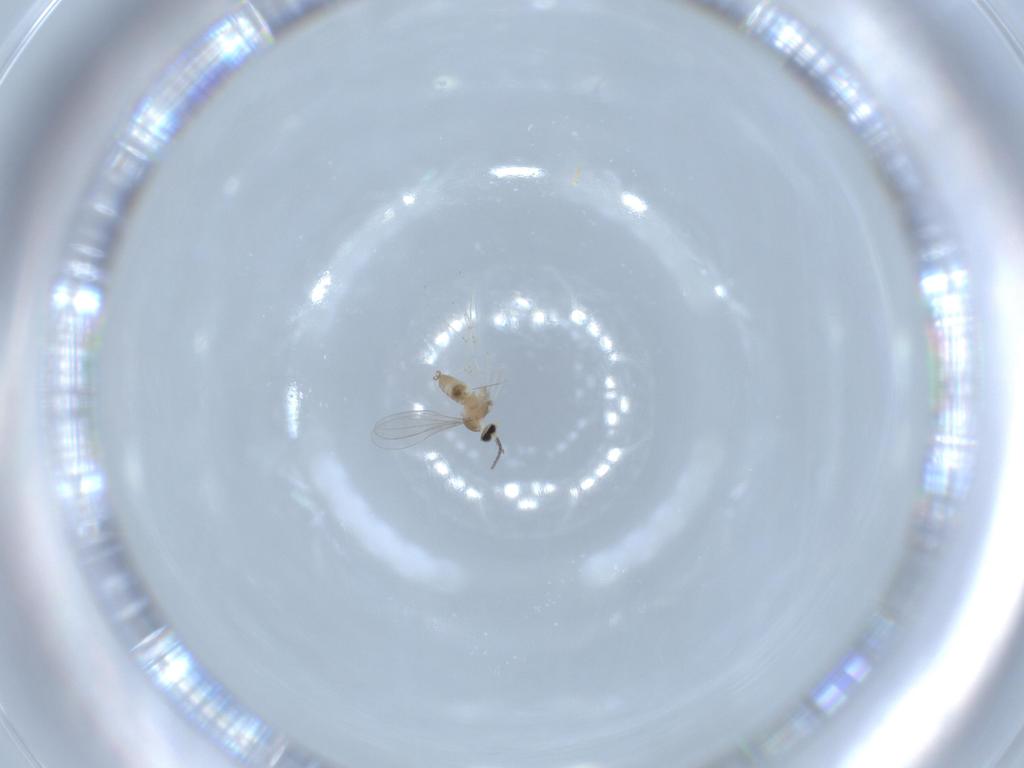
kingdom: Animalia
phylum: Arthropoda
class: Insecta
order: Diptera
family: Cecidomyiidae
